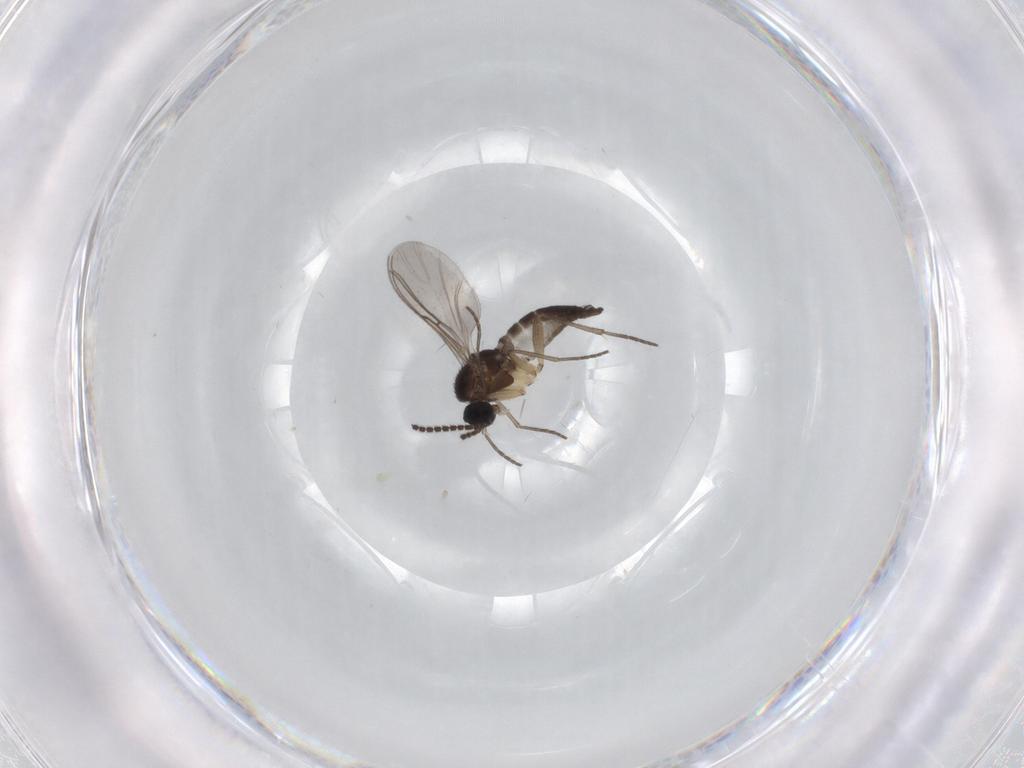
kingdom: Animalia
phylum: Arthropoda
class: Insecta
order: Diptera
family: Sciaridae
